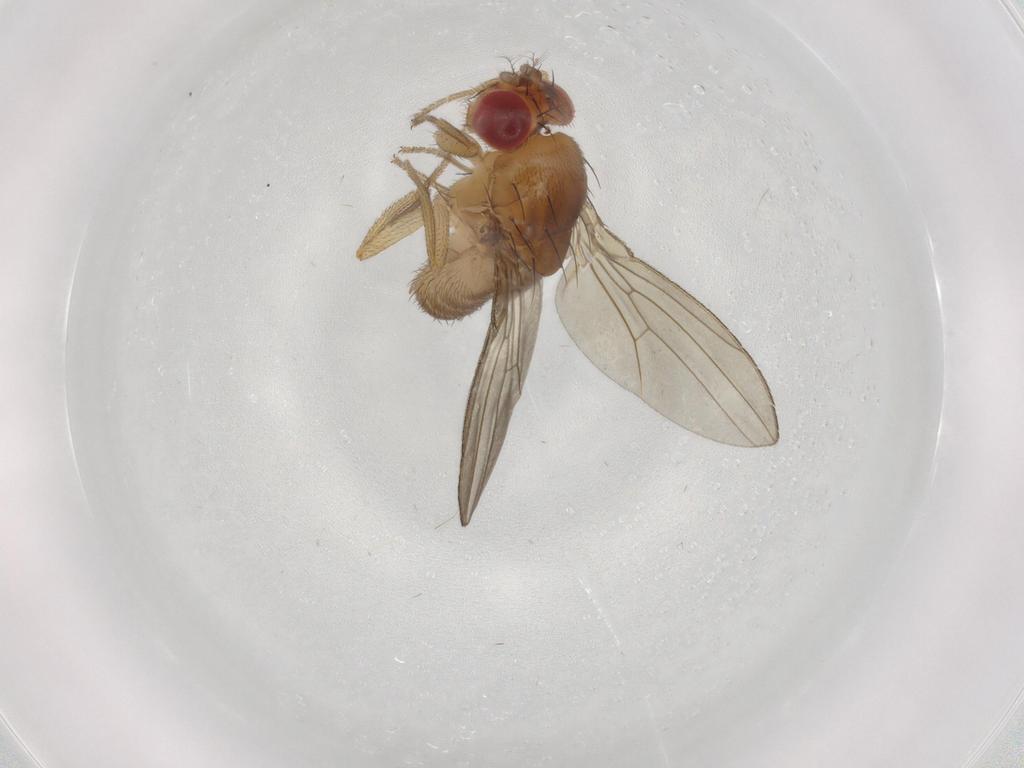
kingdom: Animalia
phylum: Arthropoda
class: Insecta
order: Diptera
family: Drosophilidae
